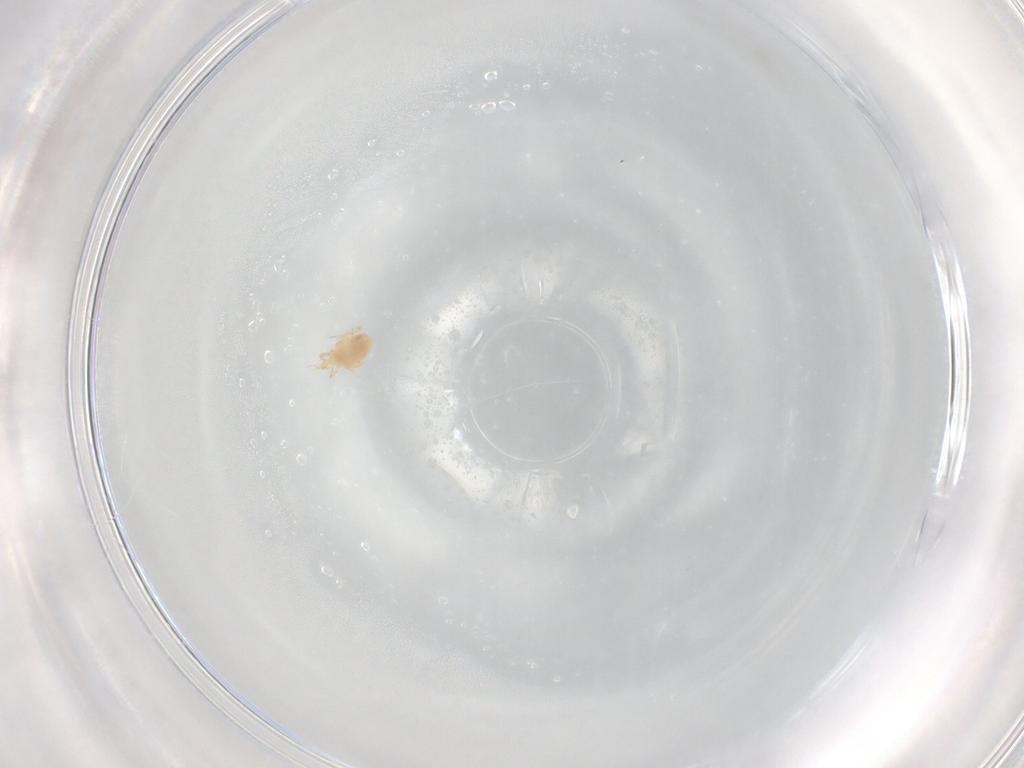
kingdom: Animalia
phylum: Arthropoda
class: Arachnida
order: Trombidiformes
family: Cunaxidae
